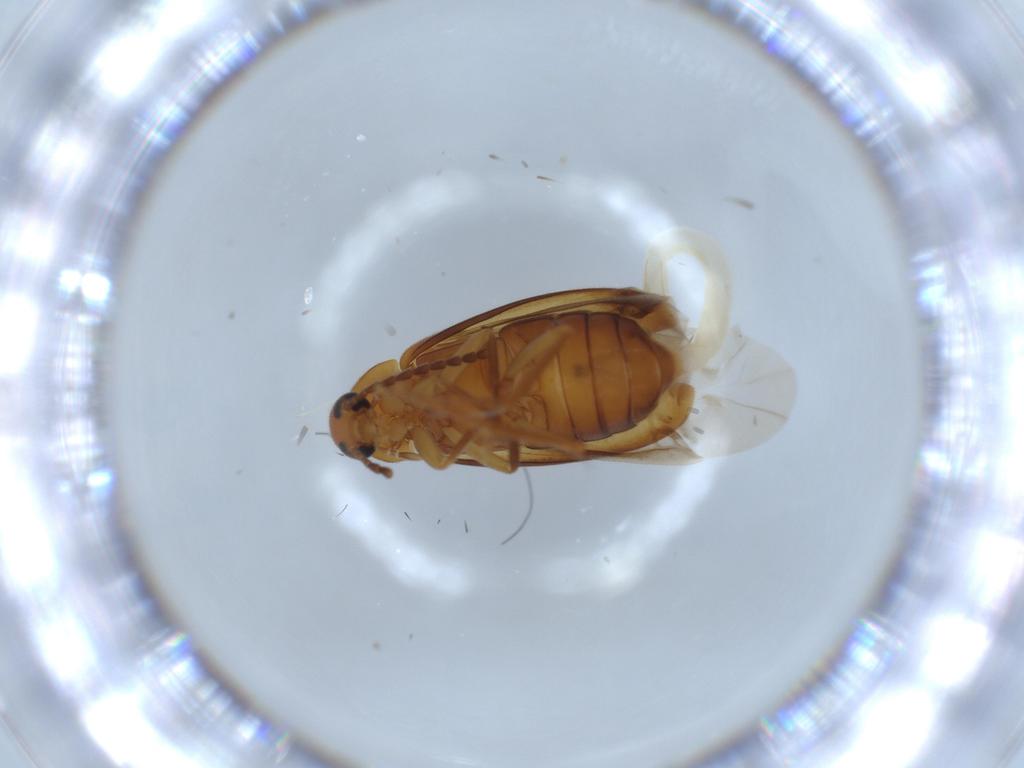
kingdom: Animalia
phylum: Arthropoda
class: Insecta
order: Coleoptera
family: Scraptiidae
